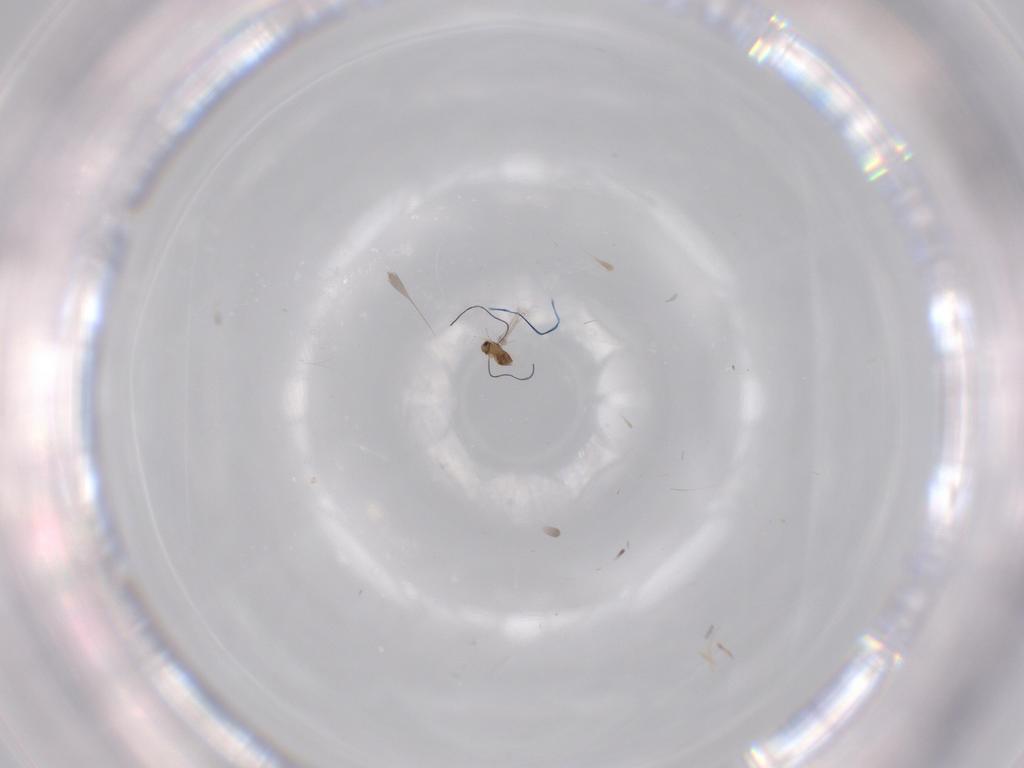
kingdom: Animalia
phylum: Arthropoda
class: Insecta
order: Hymenoptera
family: Mymaridae
